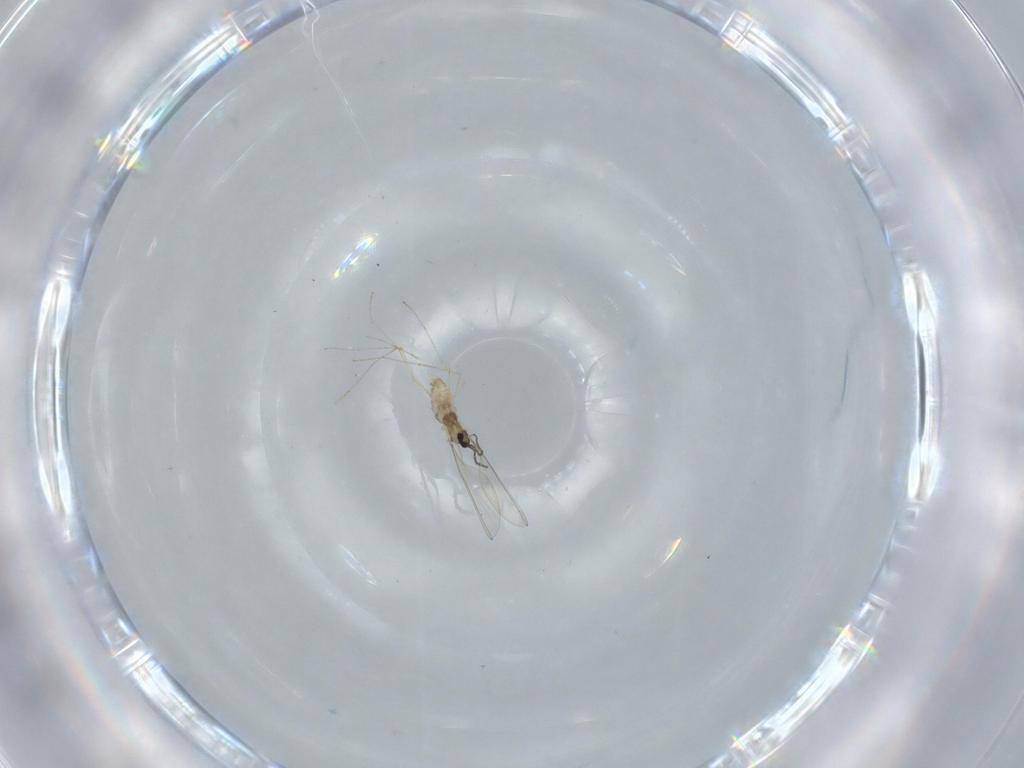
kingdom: Animalia
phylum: Arthropoda
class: Insecta
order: Diptera
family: Cecidomyiidae
